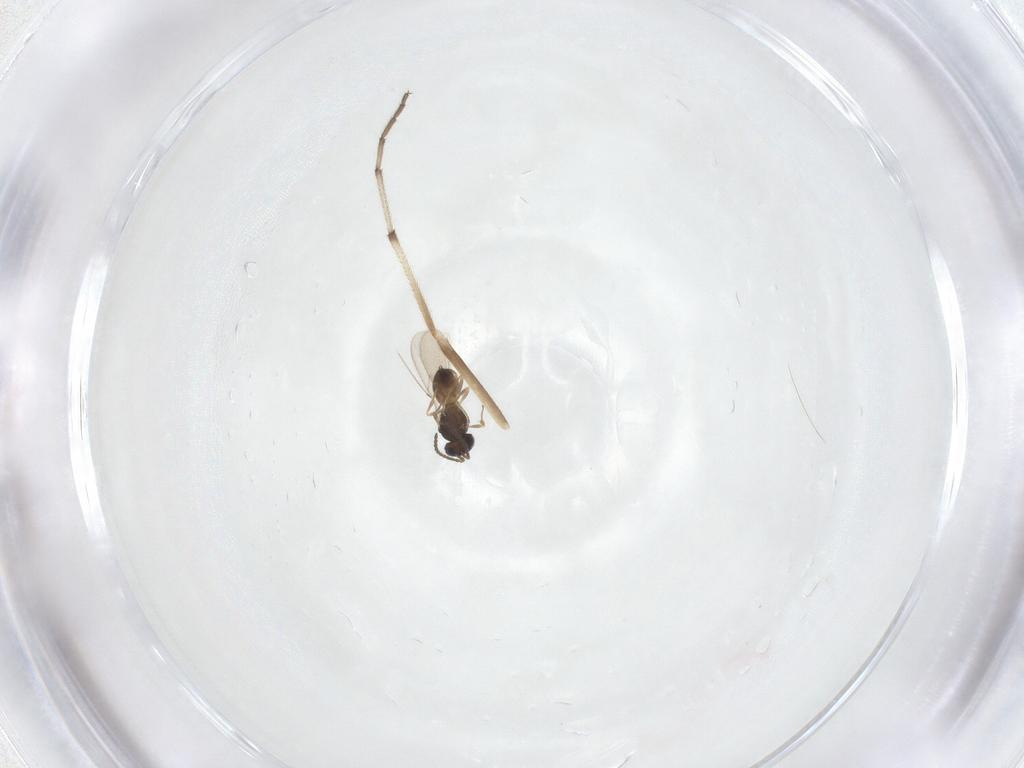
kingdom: Animalia
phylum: Arthropoda
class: Insecta
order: Hymenoptera
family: Scelionidae
